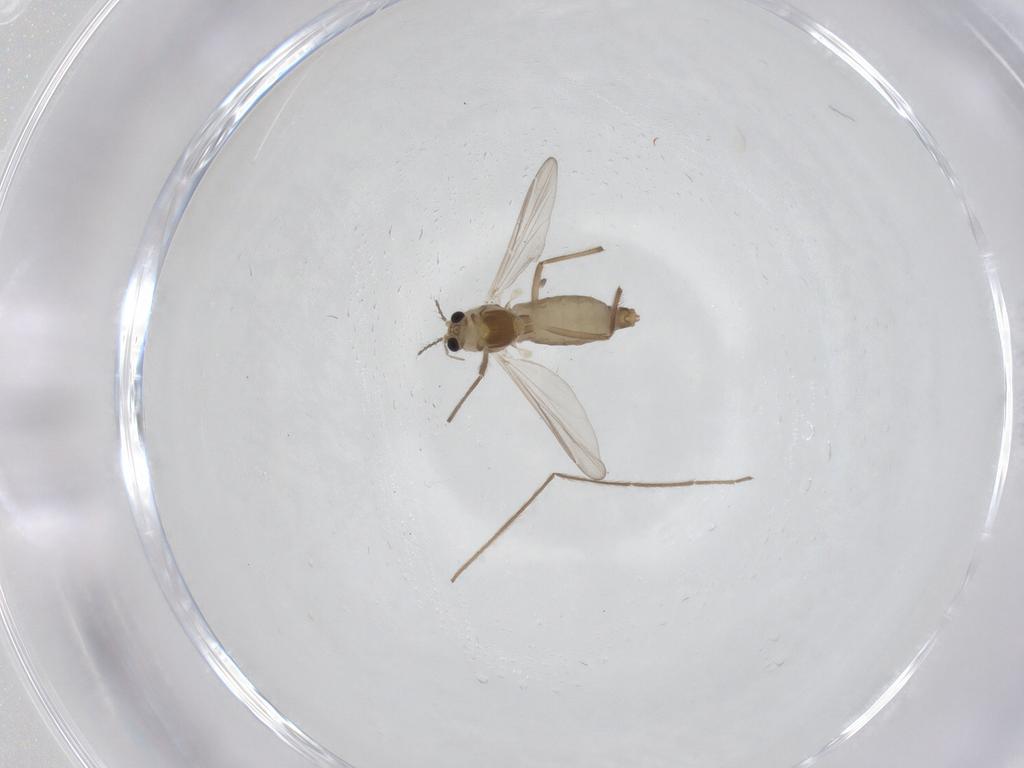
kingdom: Animalia
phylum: Arthropoda
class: Insecta
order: Diptera
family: Chironomidae
